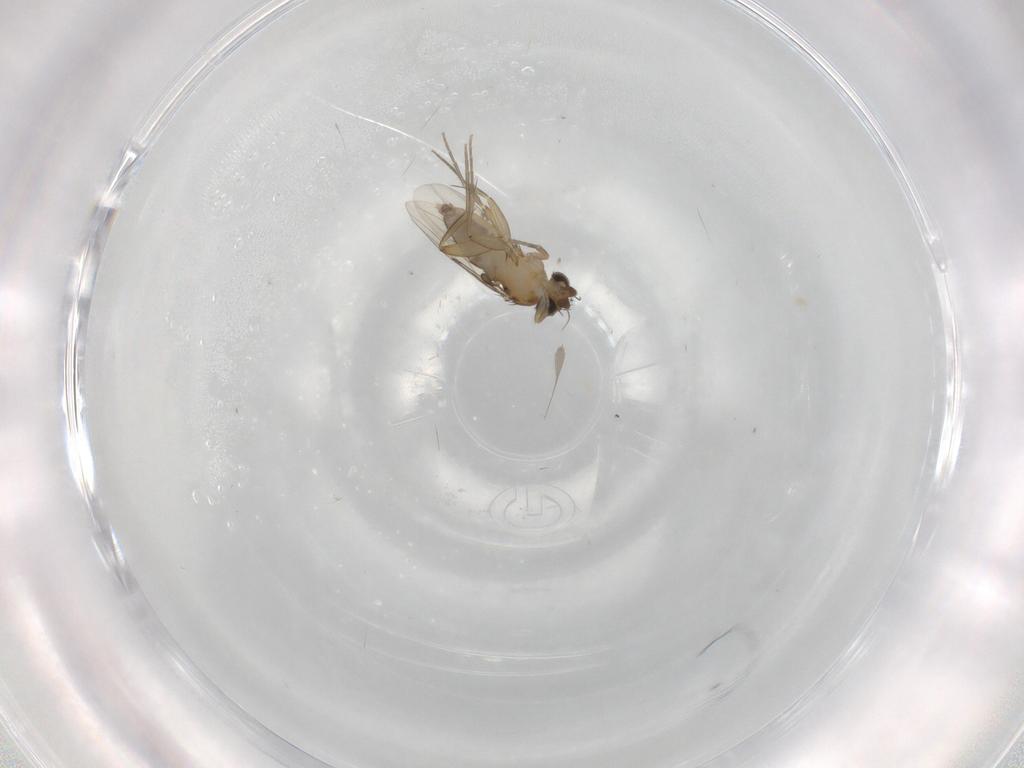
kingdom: Animalia
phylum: Arthropoda
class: Insecta
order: Diptera
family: Phoridae
